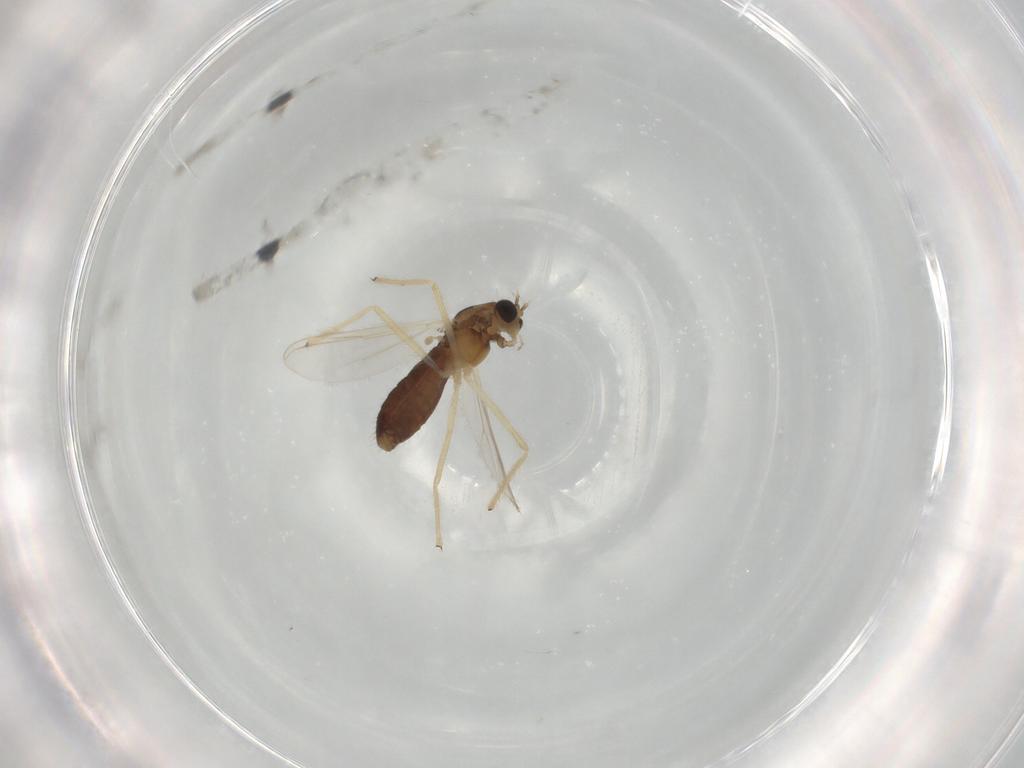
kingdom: Animalia
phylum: Arthropoda
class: Insecta
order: Diptera
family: Chironomidae
